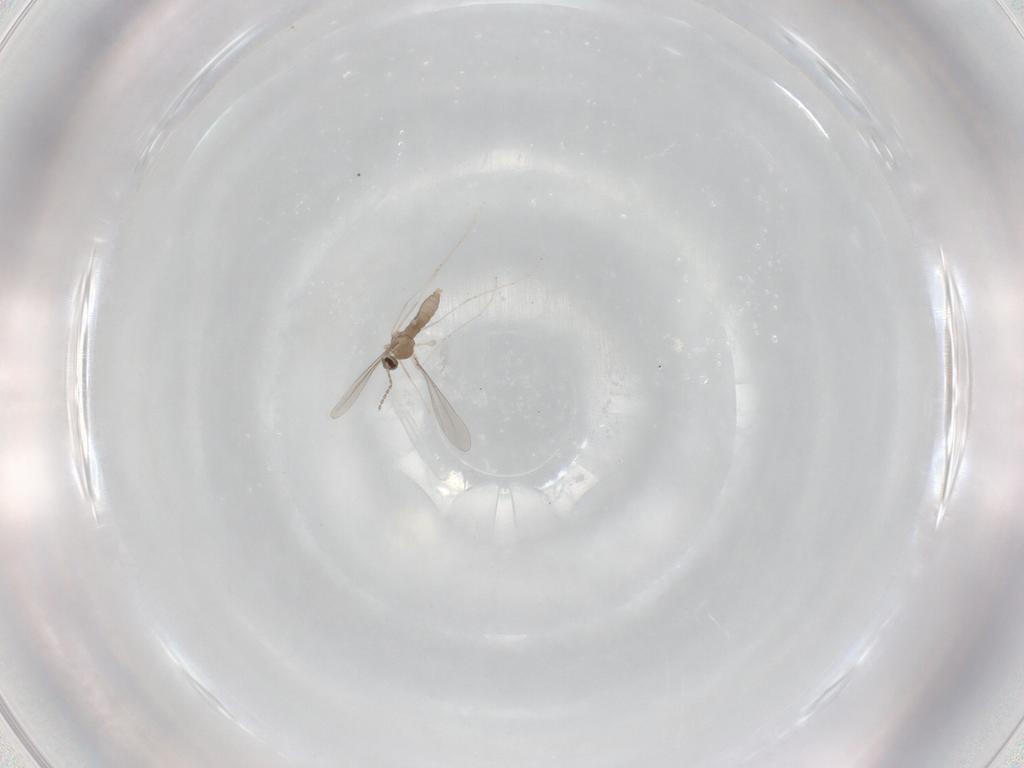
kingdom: Animalia
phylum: Arthropoda
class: Insecta
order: Diptera
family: Cecidomyiidae
